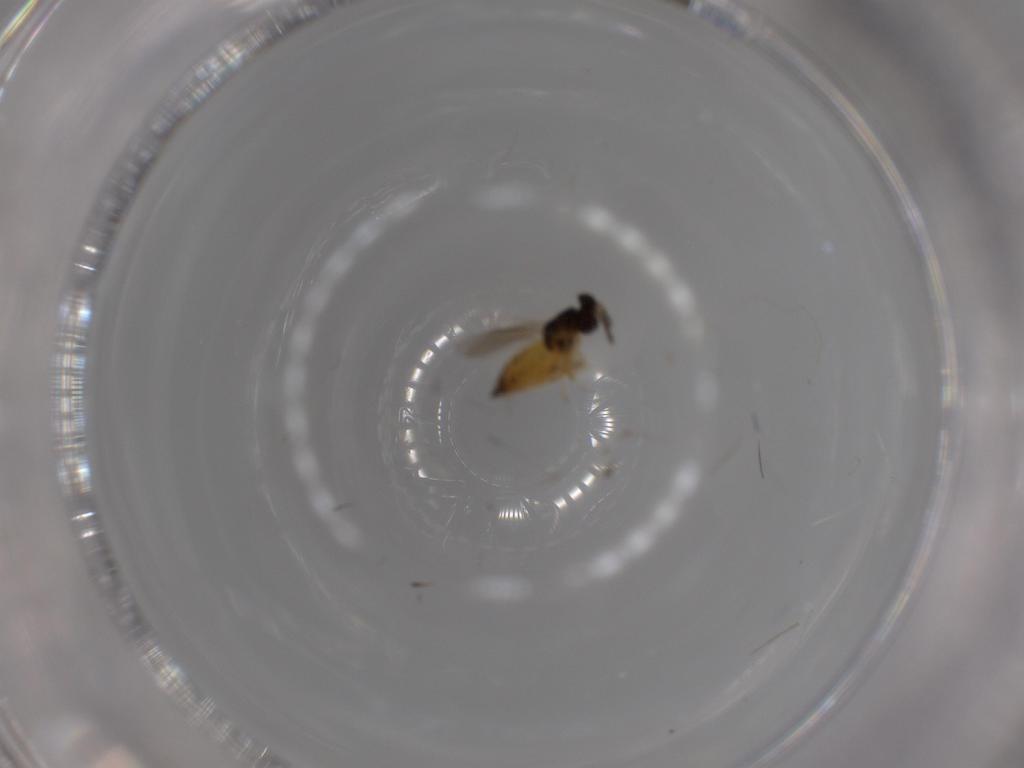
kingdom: Animalia
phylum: Arthropoda
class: Insecta
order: Hymenoptera
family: Eulophidae
